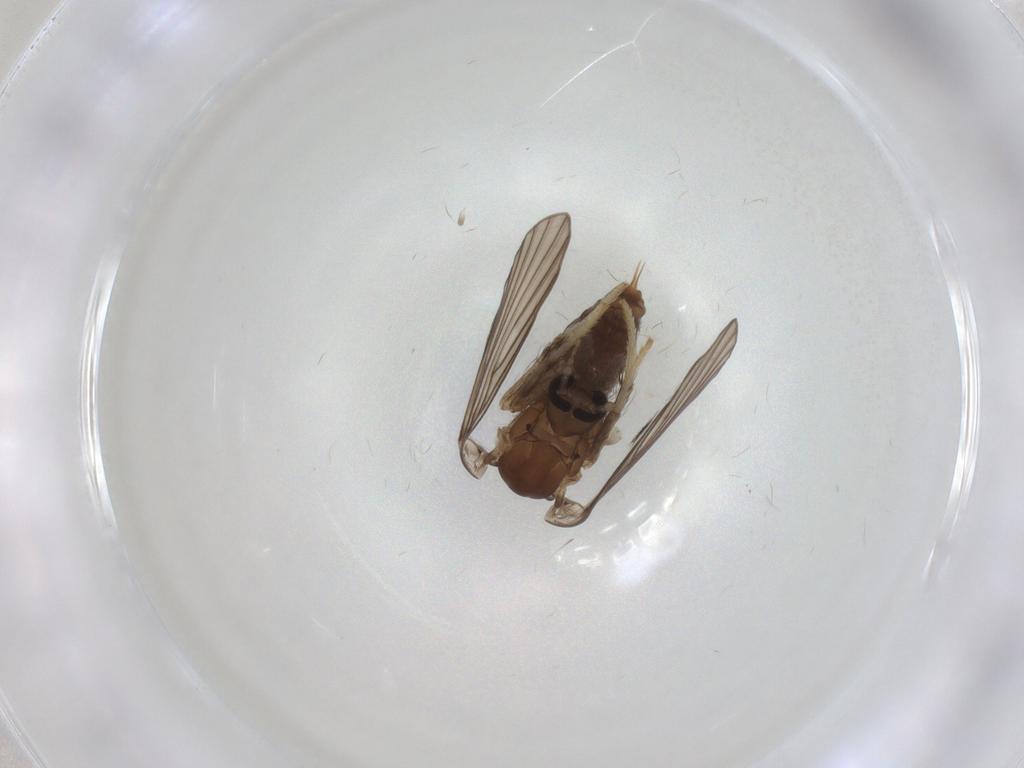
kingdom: Animalia
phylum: Arthropoda
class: Insecta
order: Diptera
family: Psychodidae
